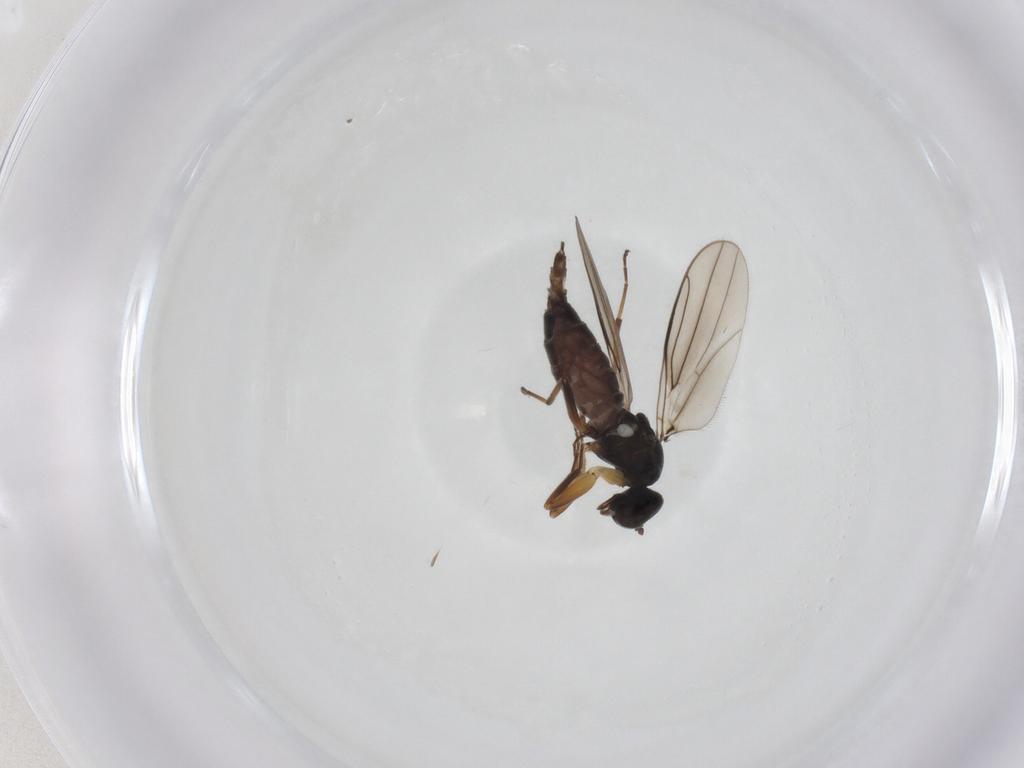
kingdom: Animalia
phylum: Arthropoda
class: Insecta
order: Diptera
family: Hybotidae
